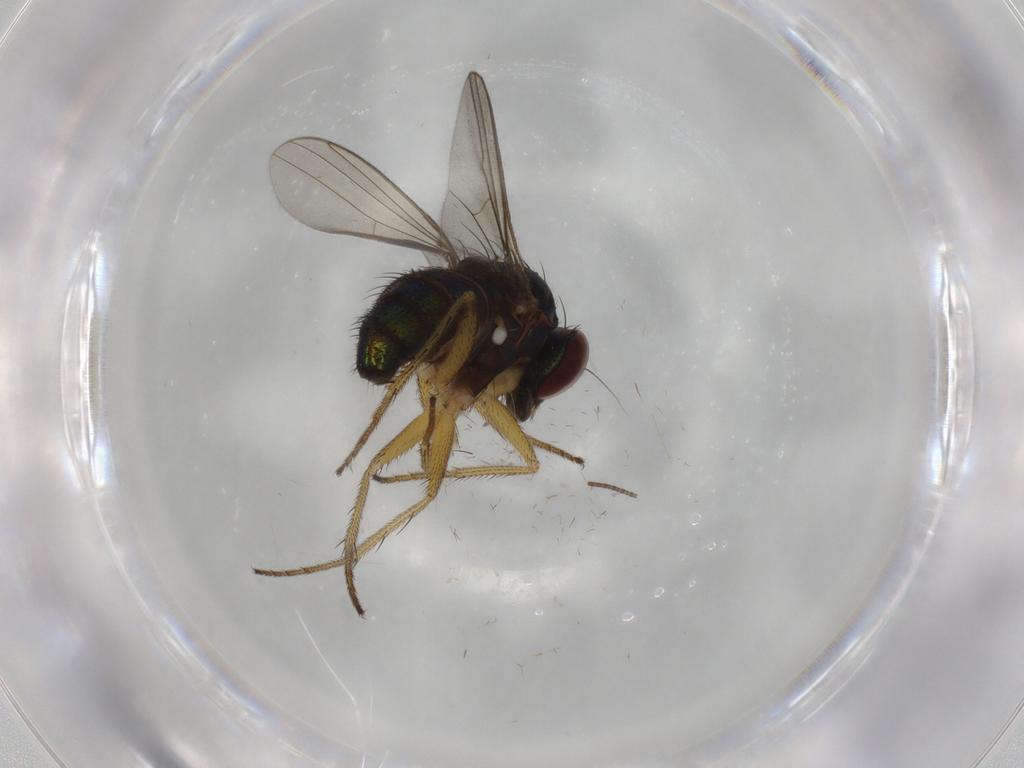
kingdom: Animalia
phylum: Arthropoda
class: Insecta
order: Diptera
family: Dolichopodidae
